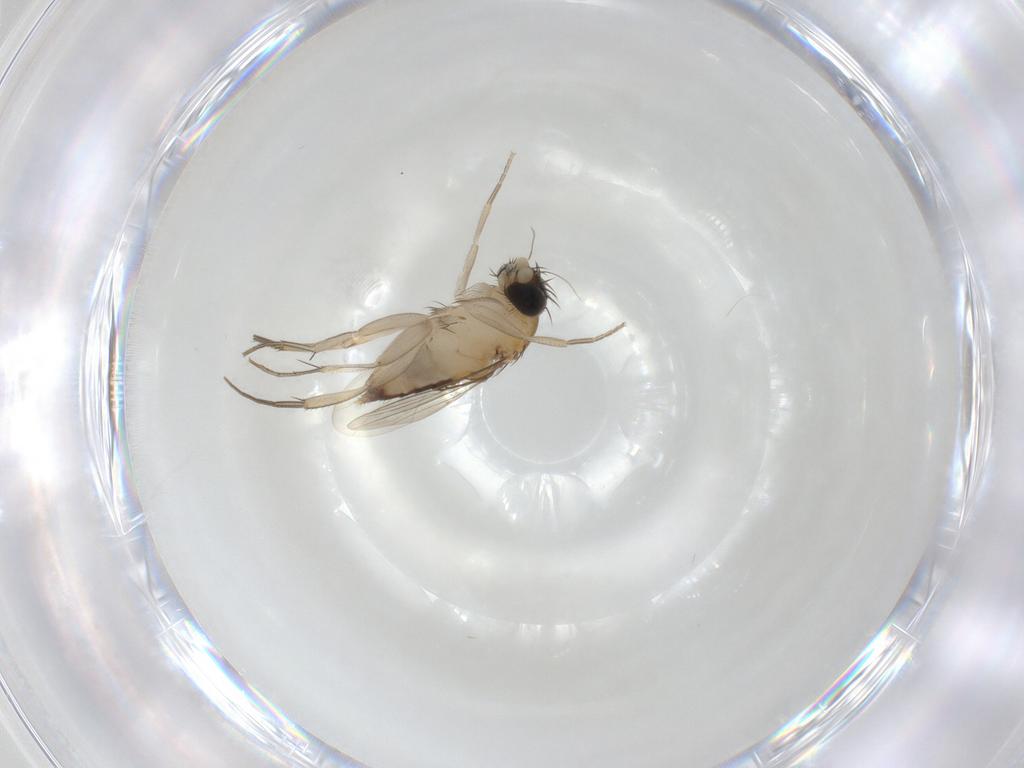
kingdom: Animalia
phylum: Arthropoda
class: Insecta
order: Diptera
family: Phoridae
